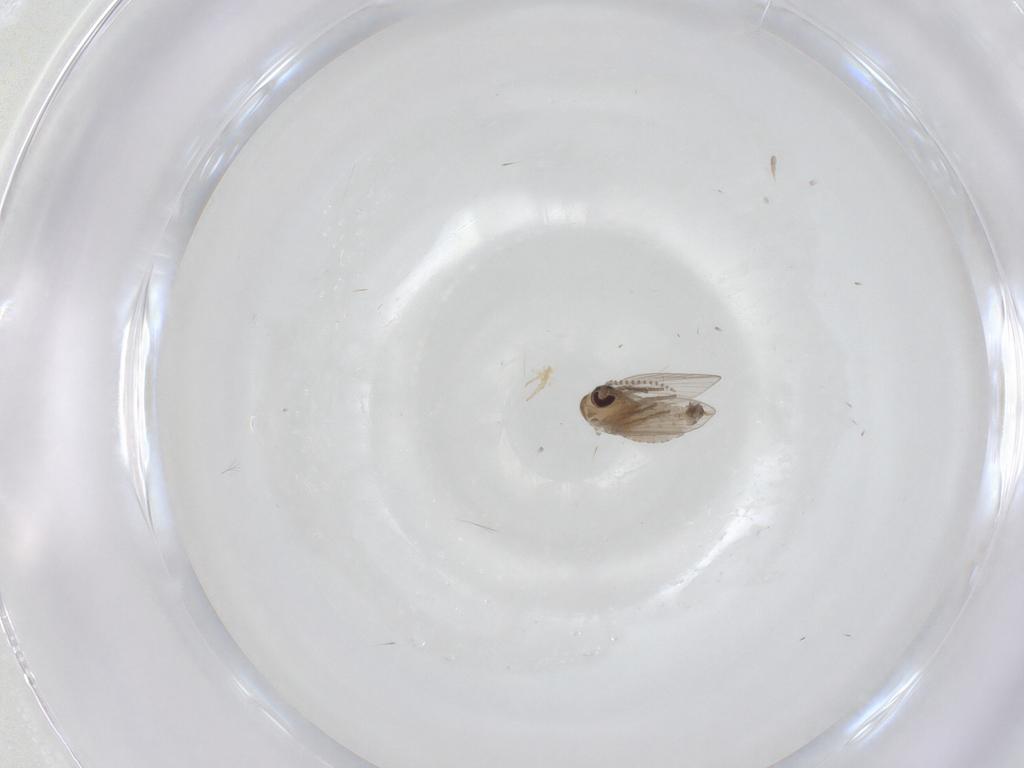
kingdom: Animalia
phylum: Arthropoda
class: Insecta
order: Diptera
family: Psychodidae
